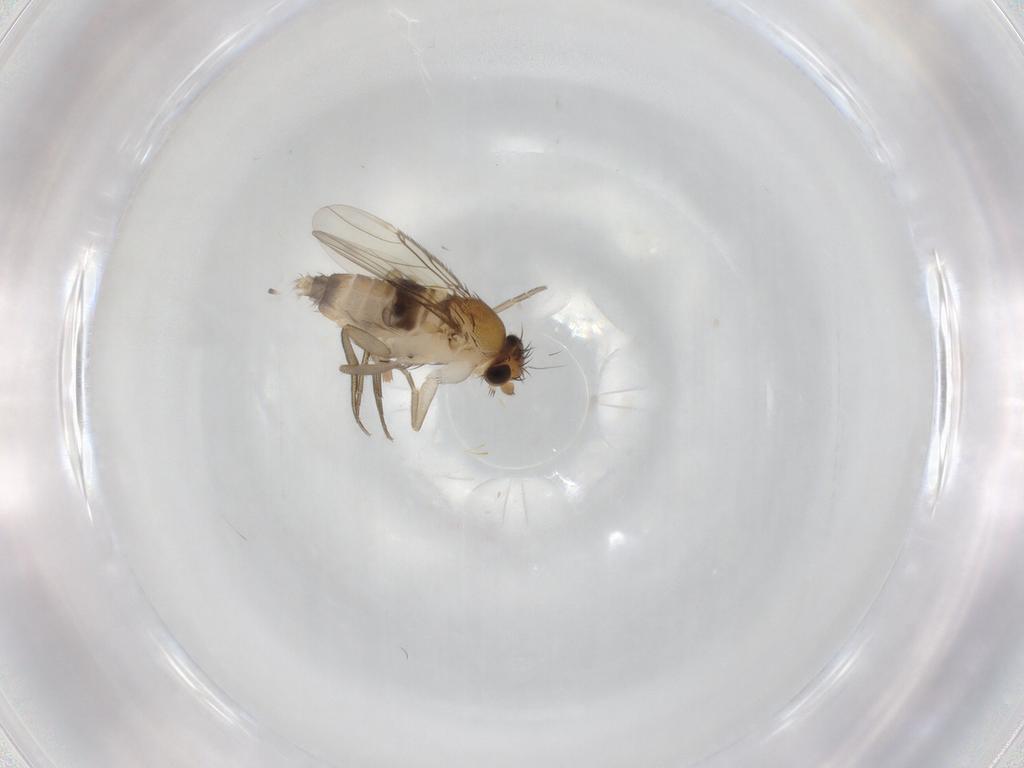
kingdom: Animalia
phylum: Arthropoda
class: Insecta
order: Diptera
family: Phoridae
